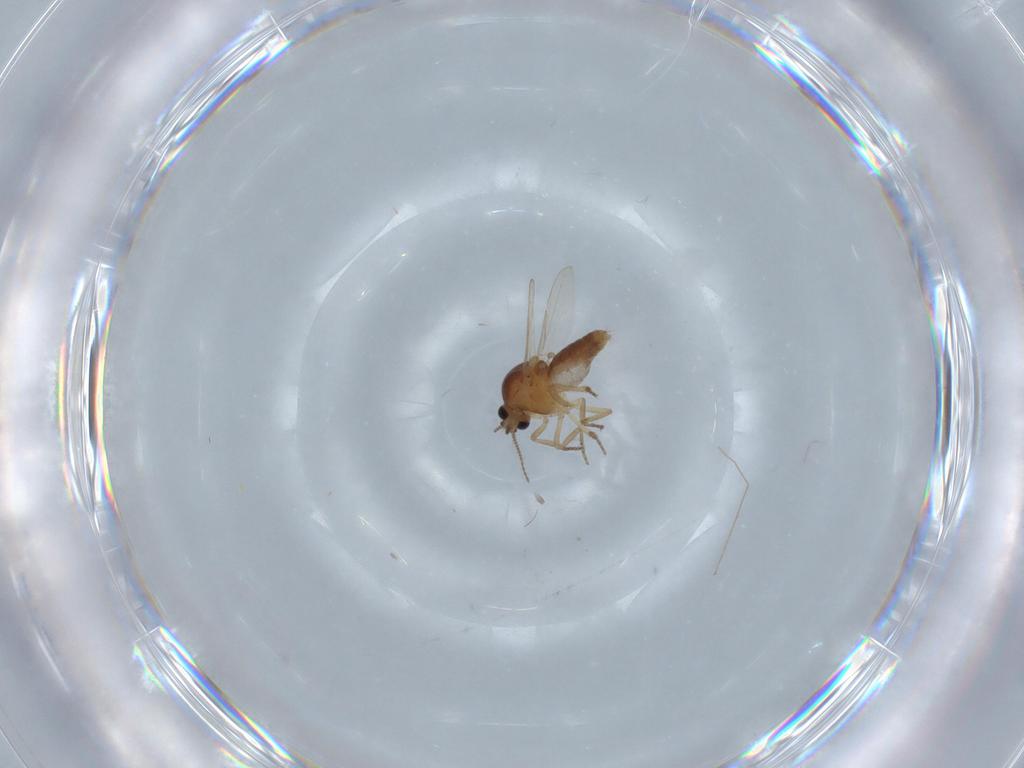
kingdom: Animalia
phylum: Arthropoda
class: Insecta
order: Diptera
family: Ceratopogonidae
